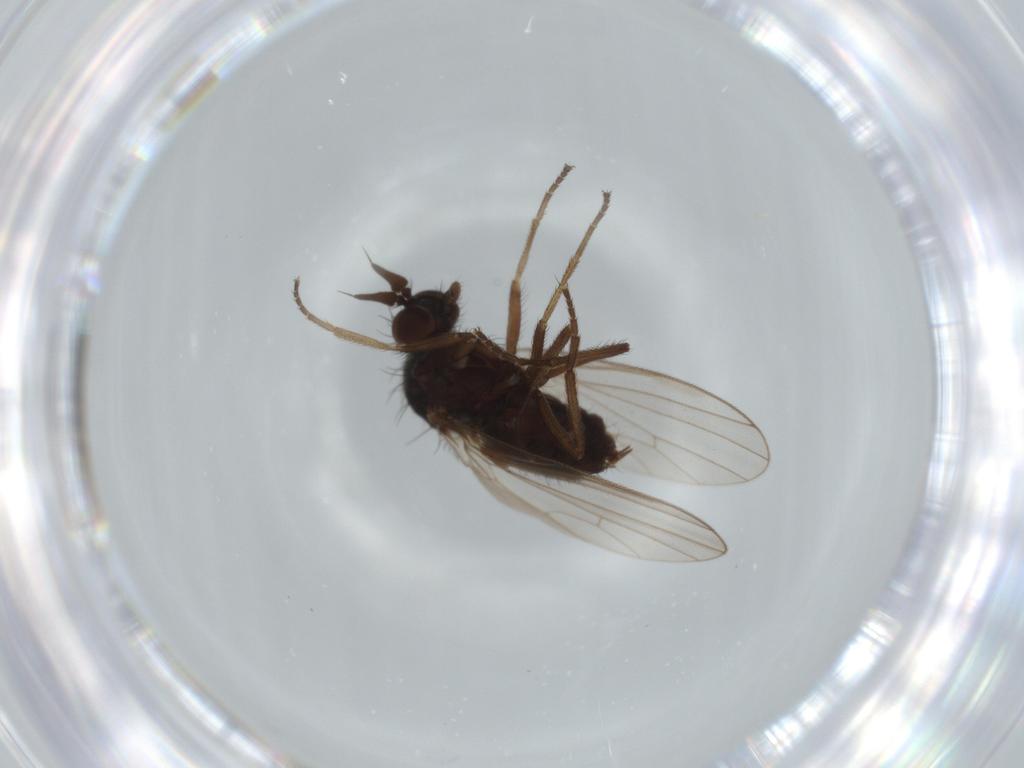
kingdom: Animalia
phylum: Arthropoda
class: Insecta
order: Diptera
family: Dolichopodidae
